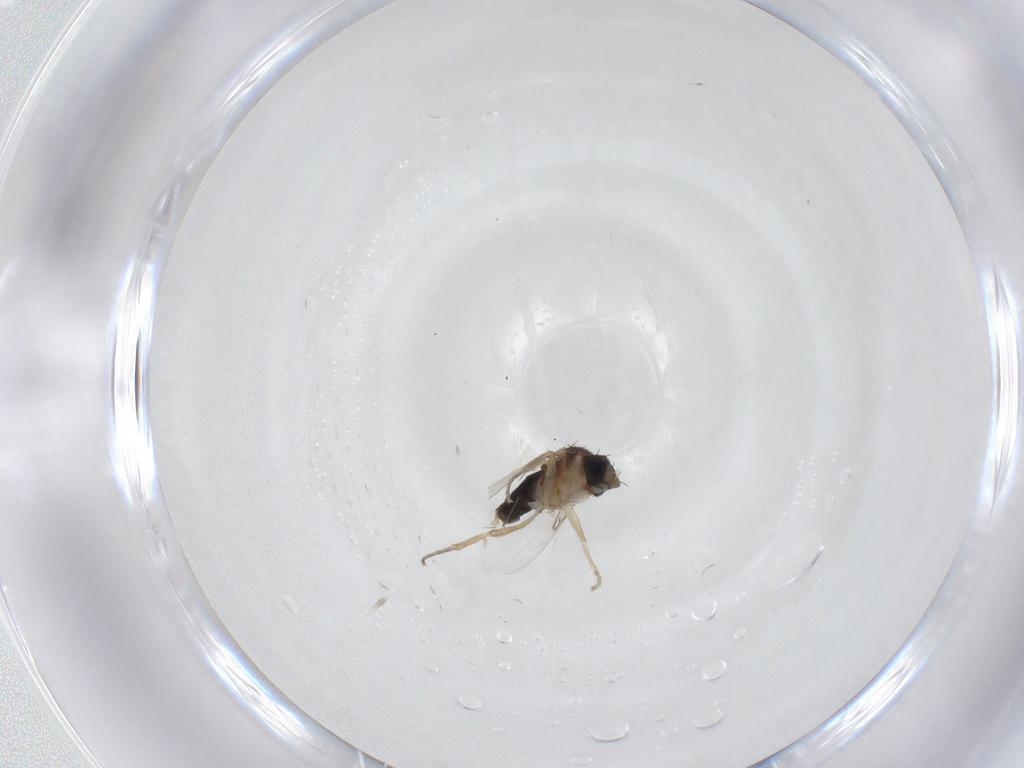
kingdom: Animalia
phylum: Arthropoda
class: Insecta
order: Diptera
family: Phoridae
